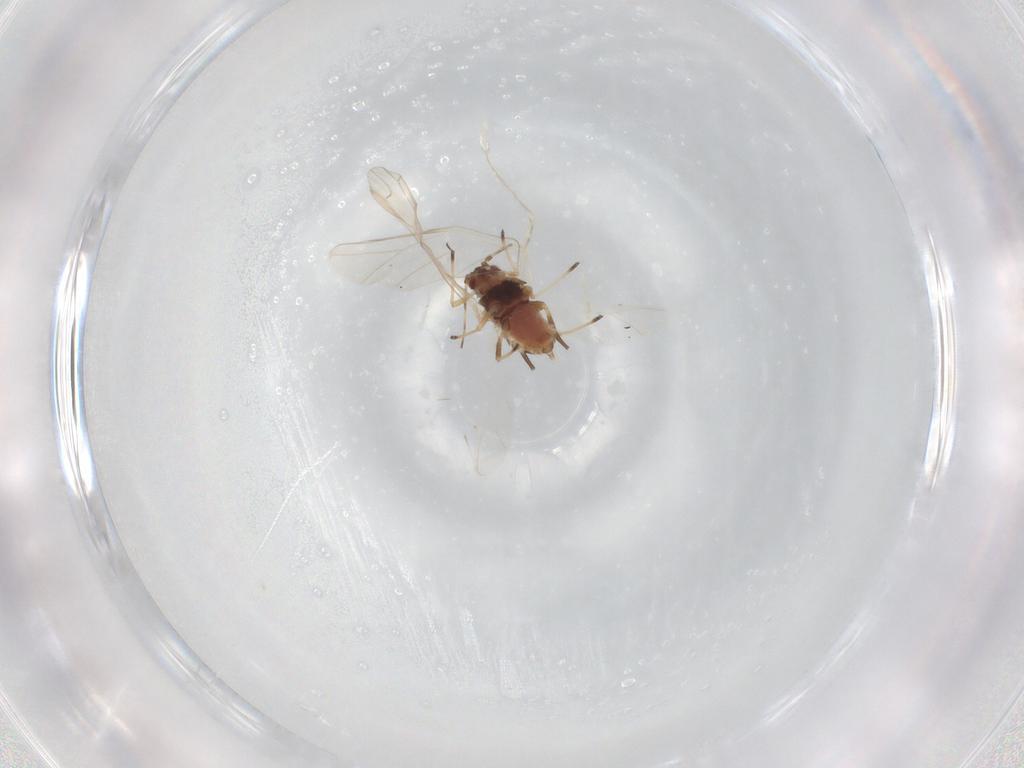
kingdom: Animalia
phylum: Arthropoda
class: Insecta
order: Hemiptera
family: Aphididae
